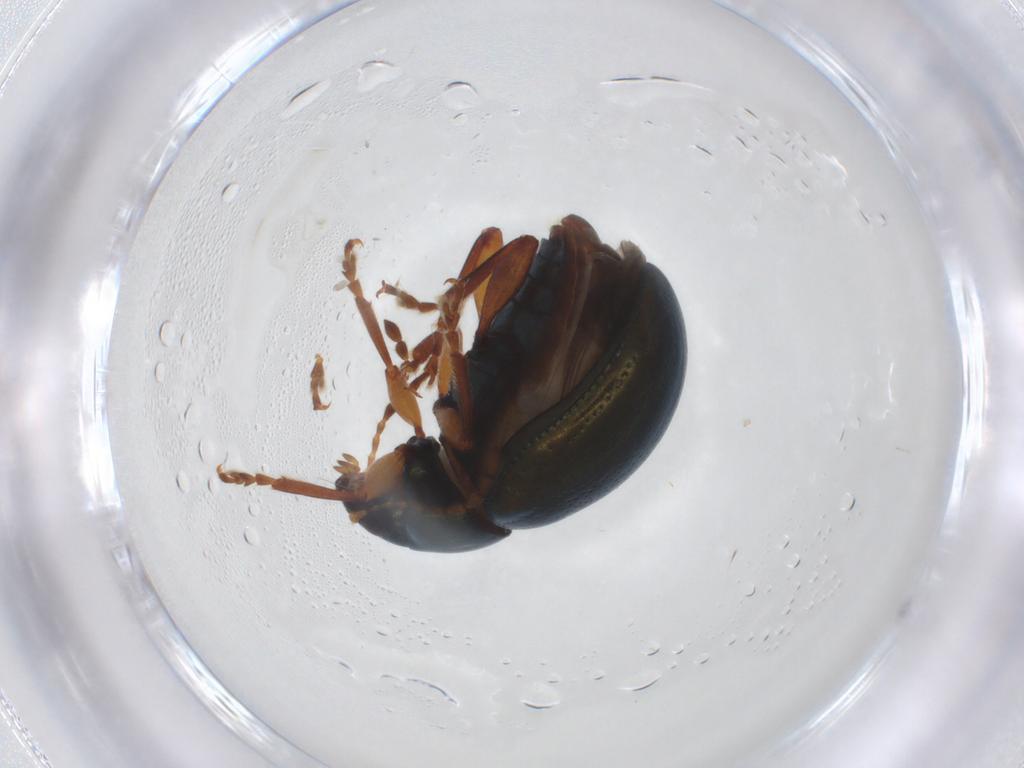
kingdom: Animalia
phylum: Arthropoda
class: Insecta
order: Coleoptera
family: Chrysomelidae
